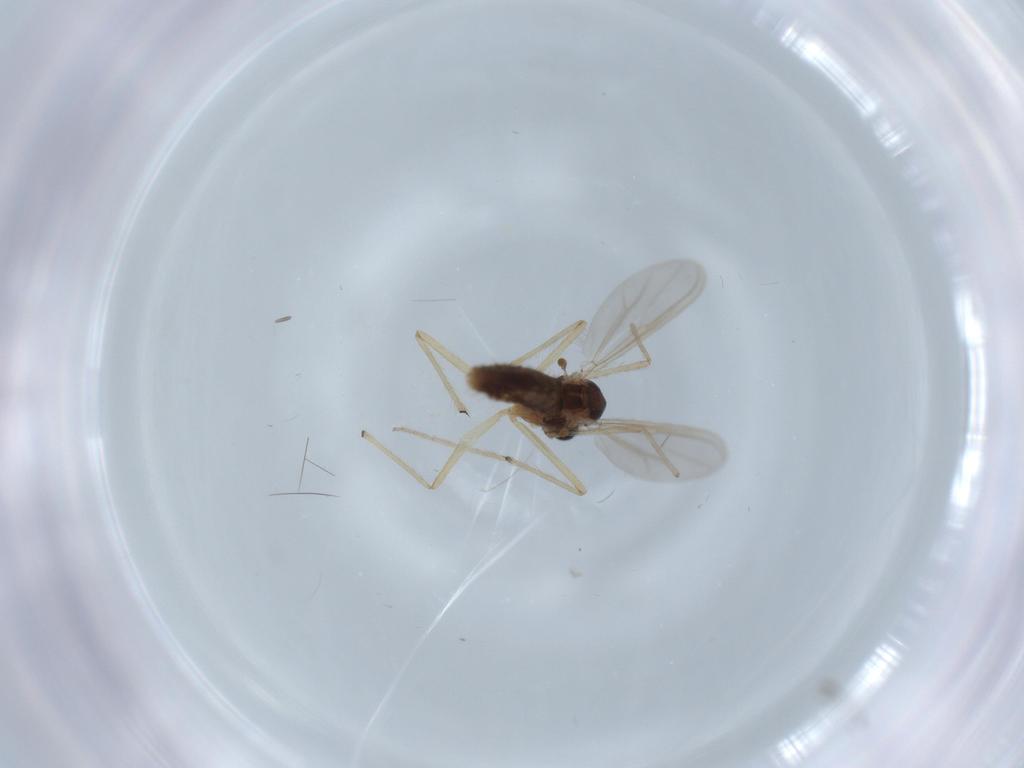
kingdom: Animalia
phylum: Arthropoda
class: Insecta
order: Diptera
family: Chironomidae
